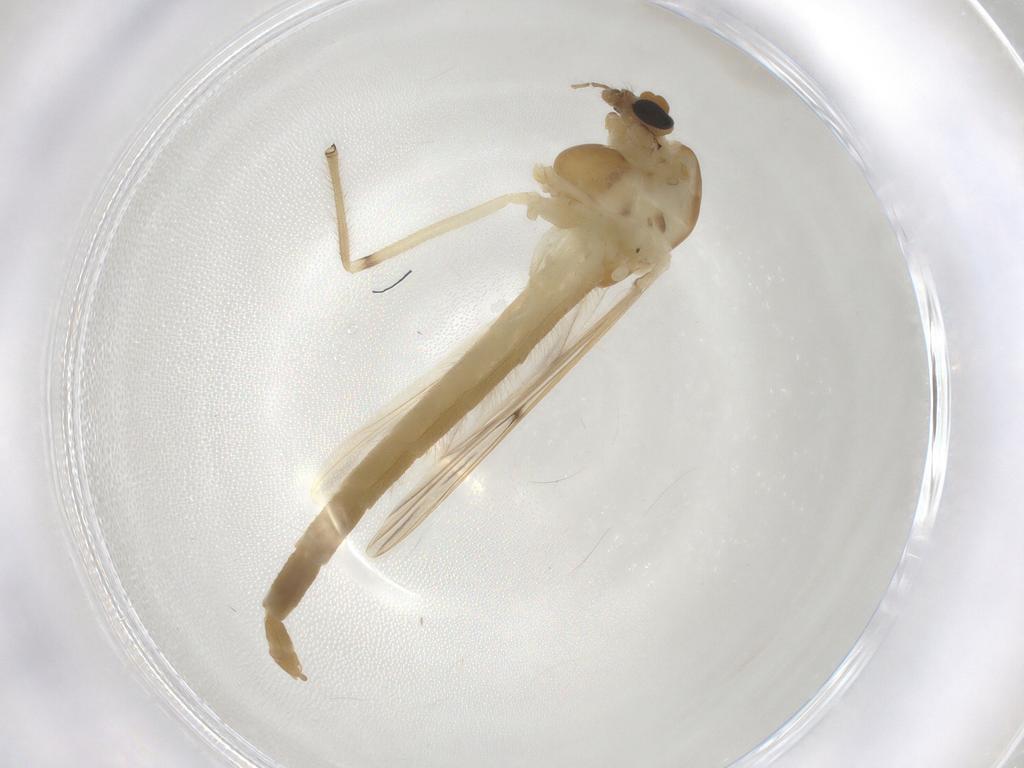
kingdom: Animalia
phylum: Arthropoda
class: Insecta
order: Diptera
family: Chironomidae
